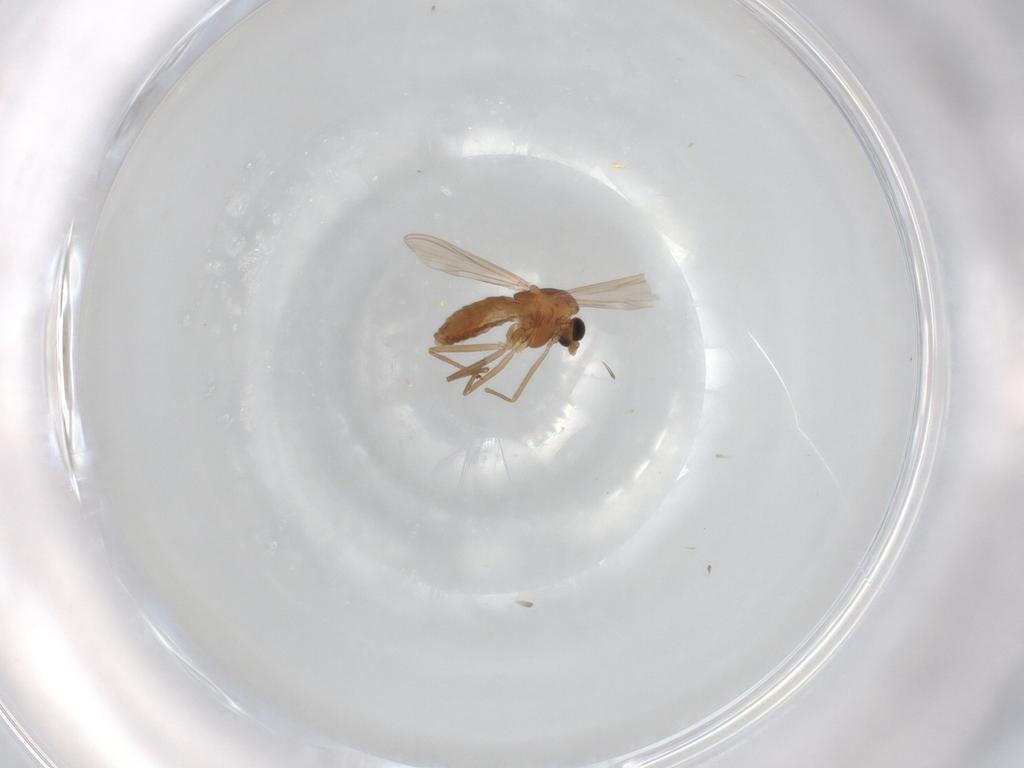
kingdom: Animalia
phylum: Arthropoda
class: Insecta
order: Diptera
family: Chironomidae
